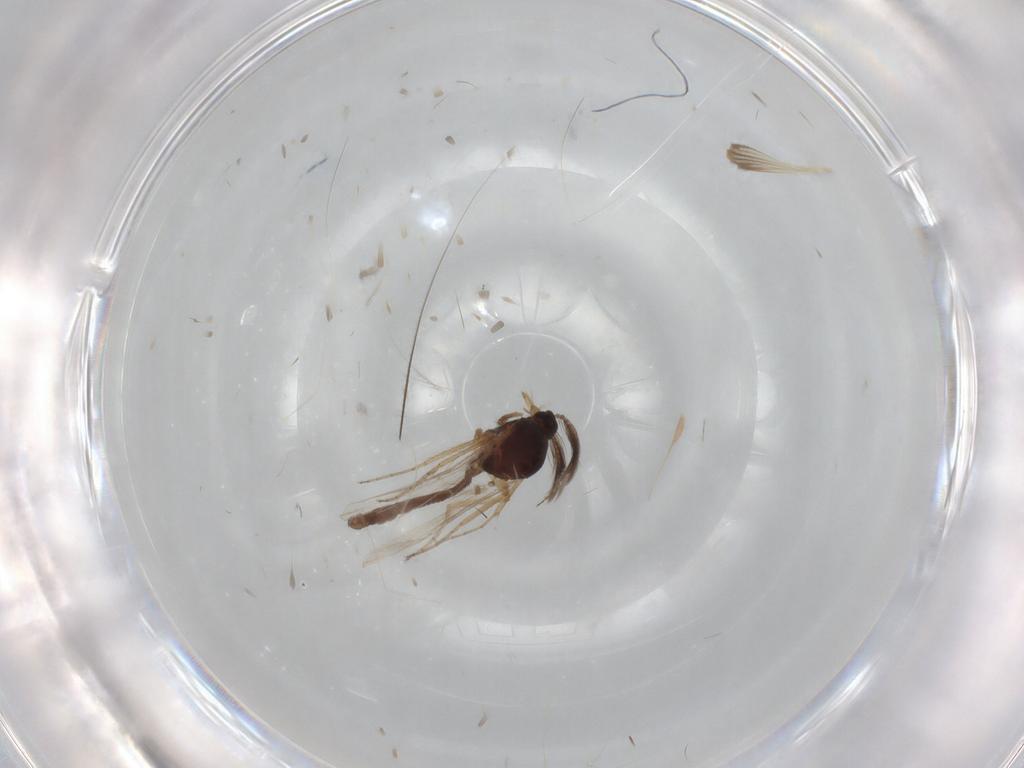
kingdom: Animalia
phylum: Arthropoda
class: Insecta
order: Diptera
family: Ceratopogonidae
